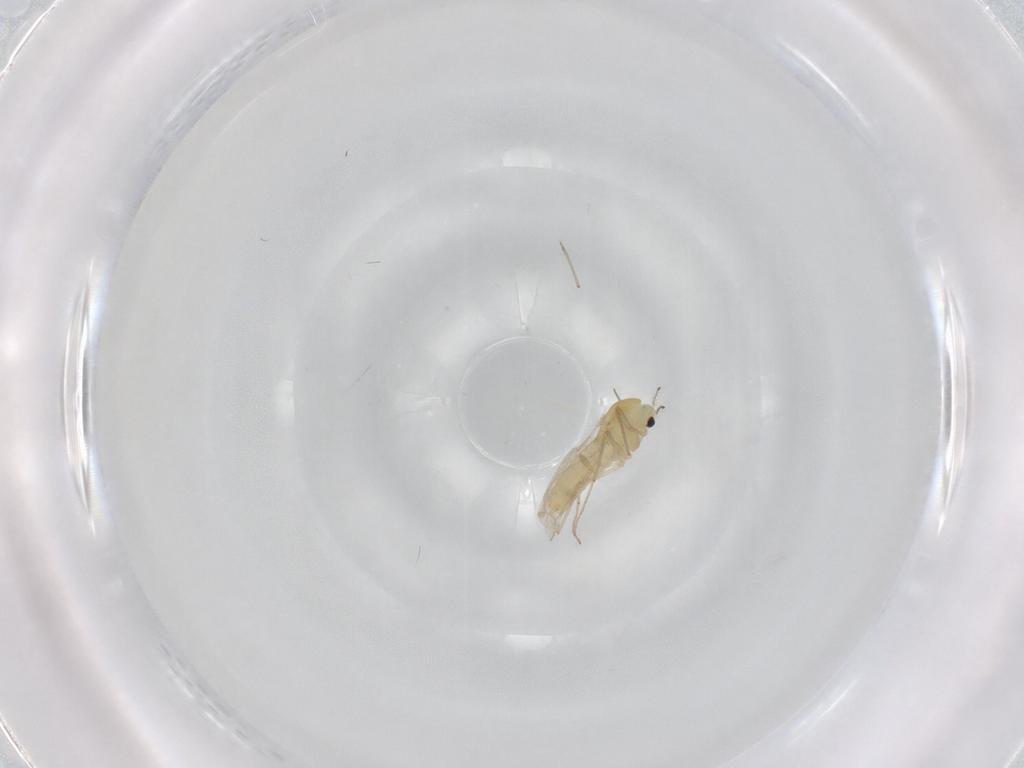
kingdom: Animalia
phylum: Arthropoda
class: Insecta
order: Diptera
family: Chironomidae
